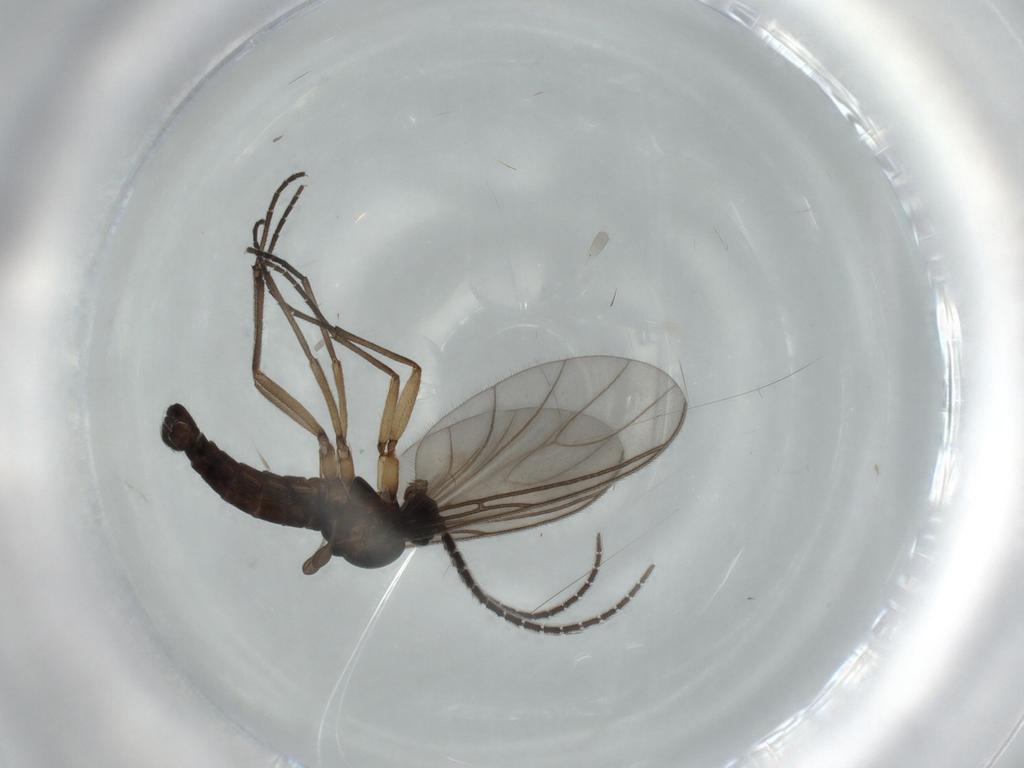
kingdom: Animalia
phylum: Arthropoda
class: Insecta
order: Diptera
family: Sciaridae
